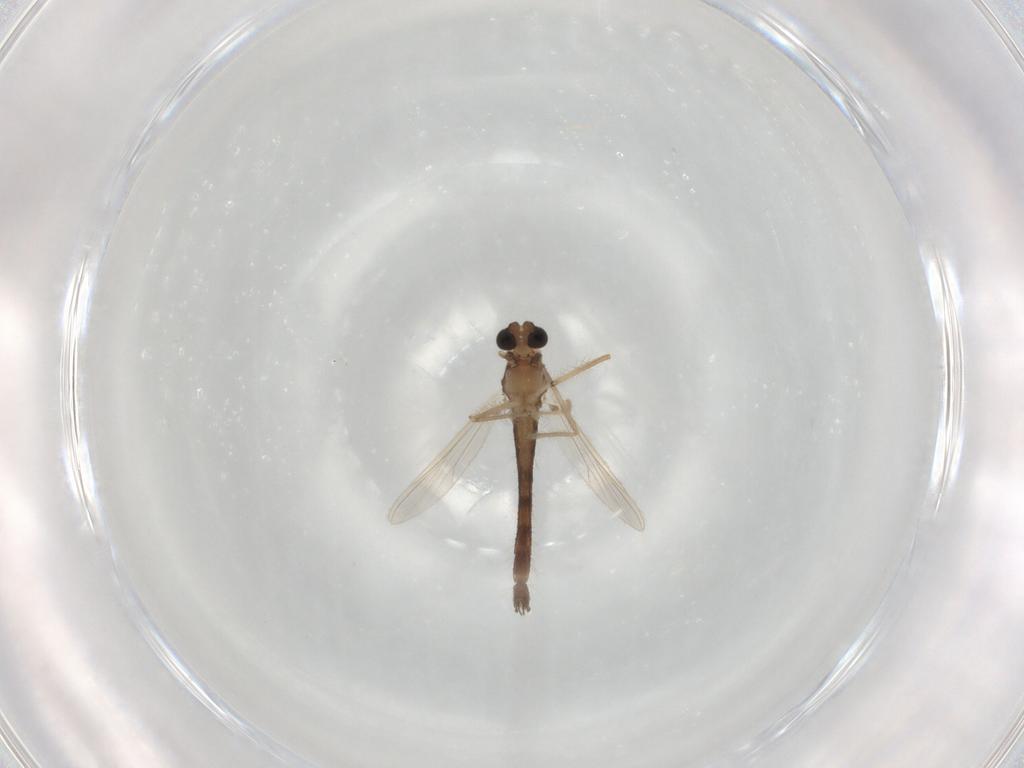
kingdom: Animalia
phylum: Arthropoda
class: Insecta
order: Diptera
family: Chironomidae
